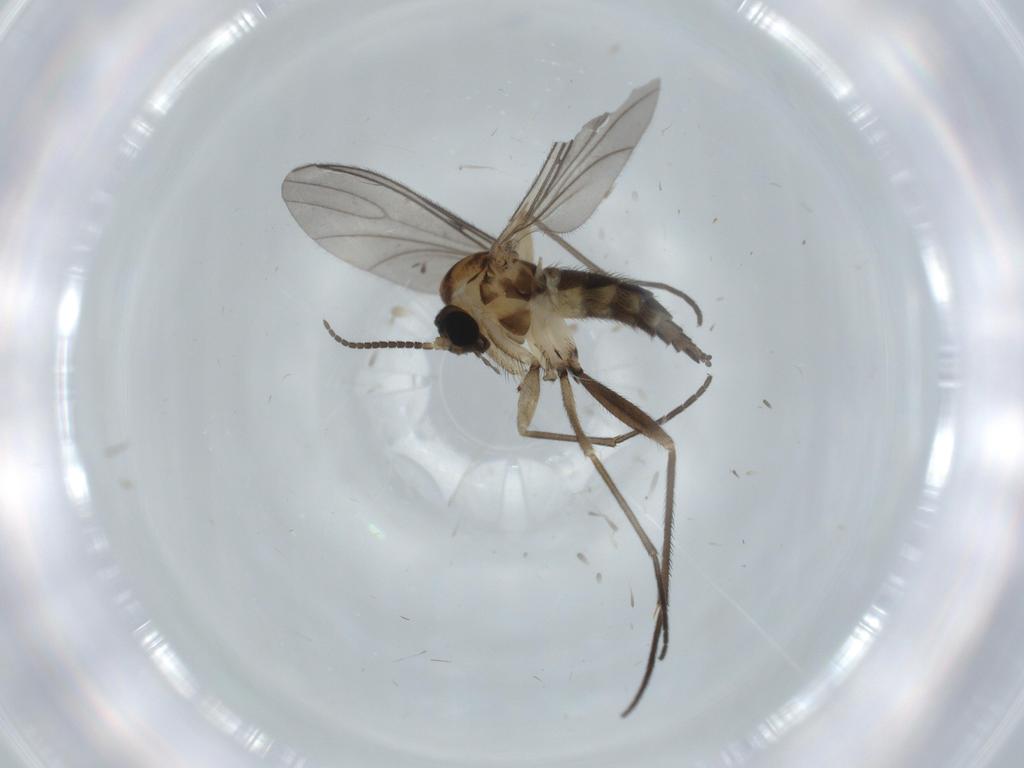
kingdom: Animalia
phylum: Arthropoda
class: Insecta
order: Diptera
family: Sciaridae
